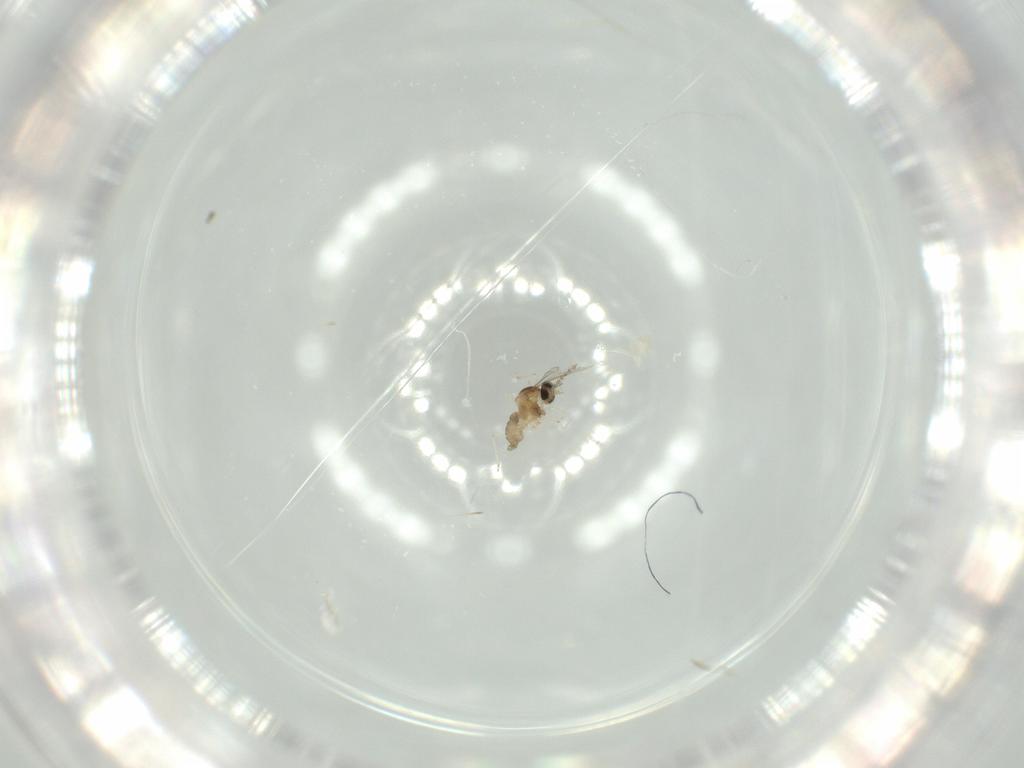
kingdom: Animalia
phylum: Arthropoda
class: Insecta
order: Diptera
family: Cecidomyiidae
